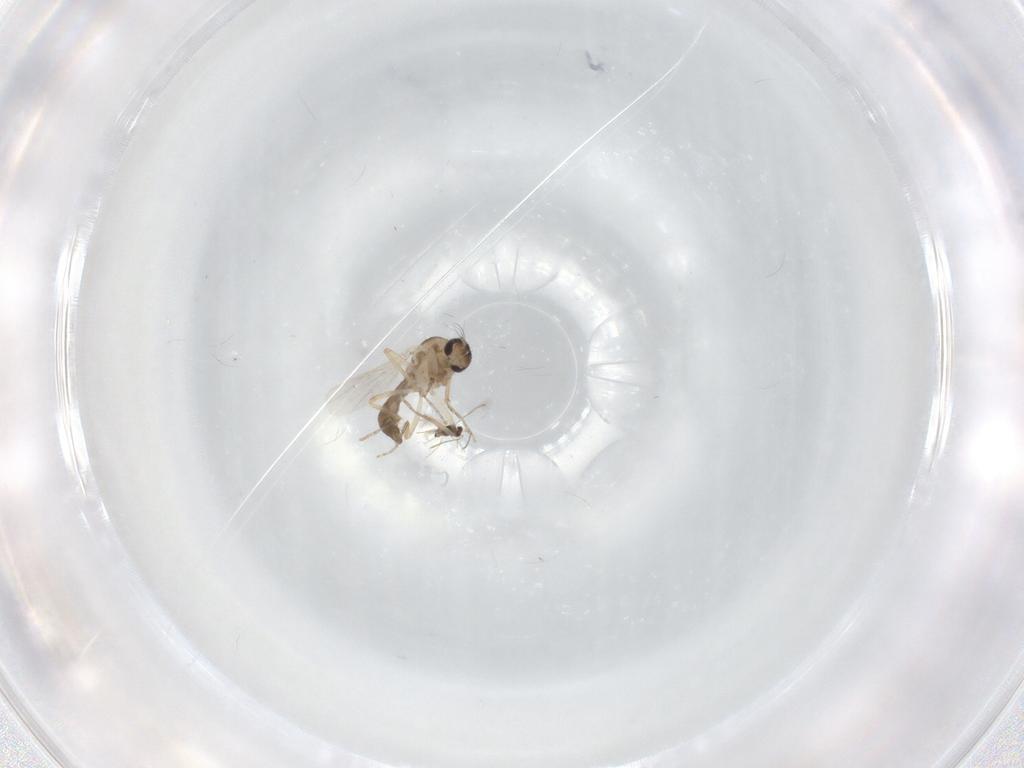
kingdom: Animalia
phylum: Arthropoda
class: Insecta
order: Diptera
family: Ceratopogonidae
